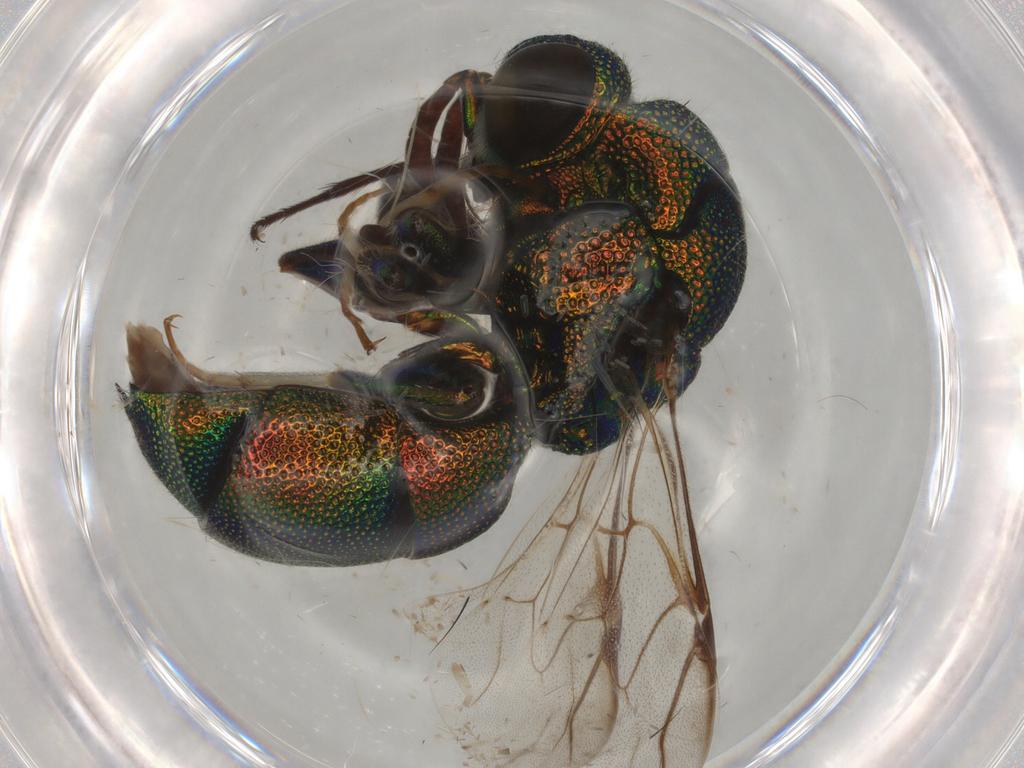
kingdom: Animalia
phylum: Arthropoda
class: Insecta
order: Hymenoptera
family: Chrysididae
